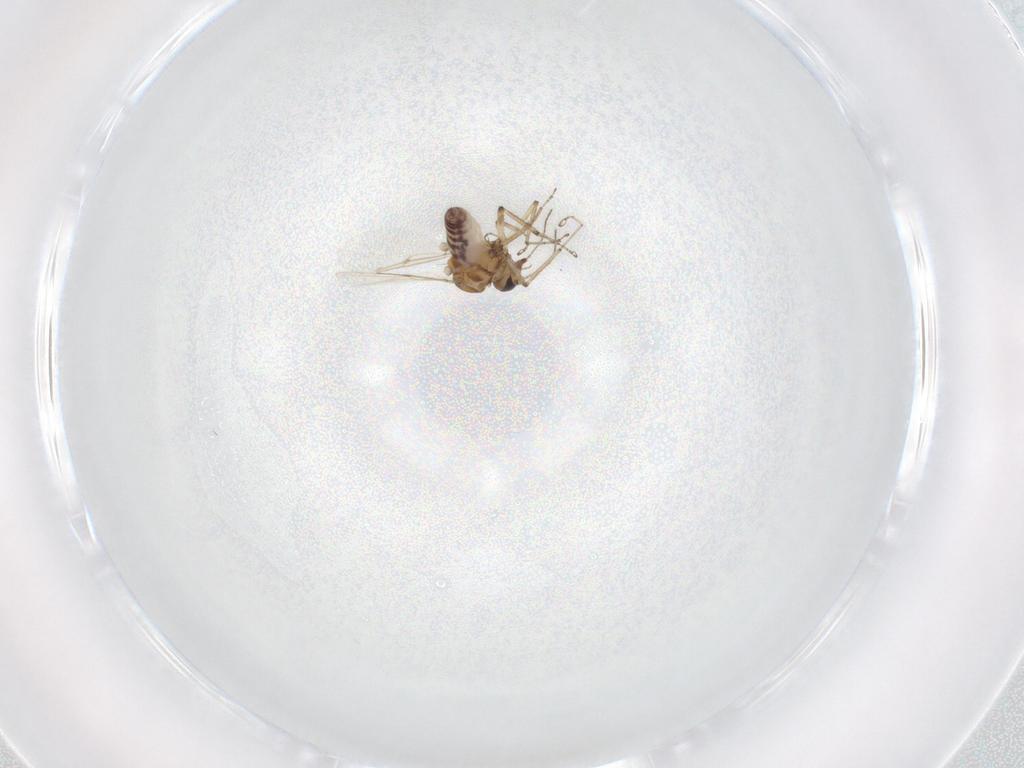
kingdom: Animalia
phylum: Arthropoda
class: Insecta
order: Diptera
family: Ceratopogonidae
